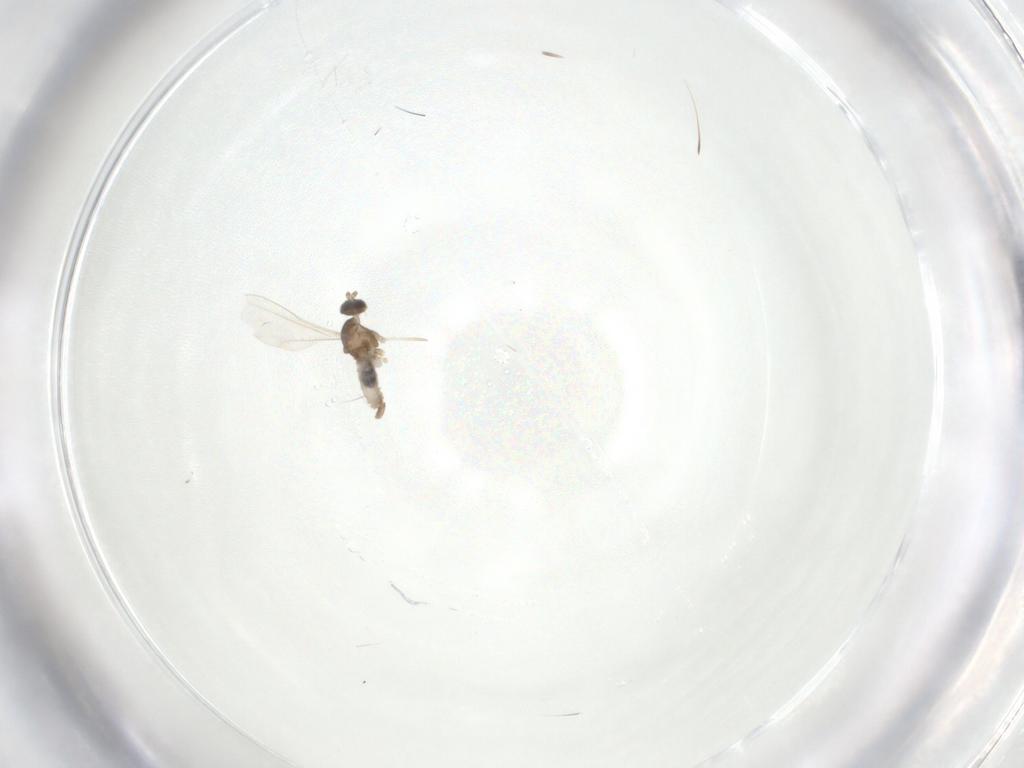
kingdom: Animalia
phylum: Arthropoda
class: Insecta
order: Diptera
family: Cecidomyiidae
